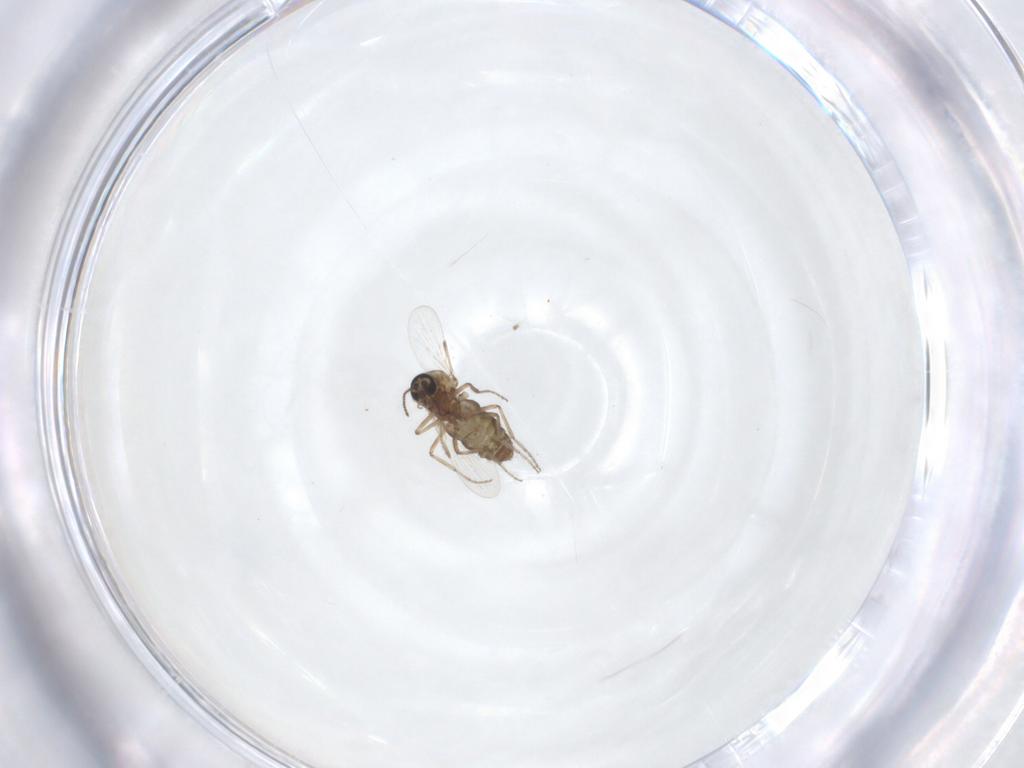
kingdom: Animalia
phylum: Arthropoda
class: Insecta
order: Diptera
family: Ceratopogonidae
